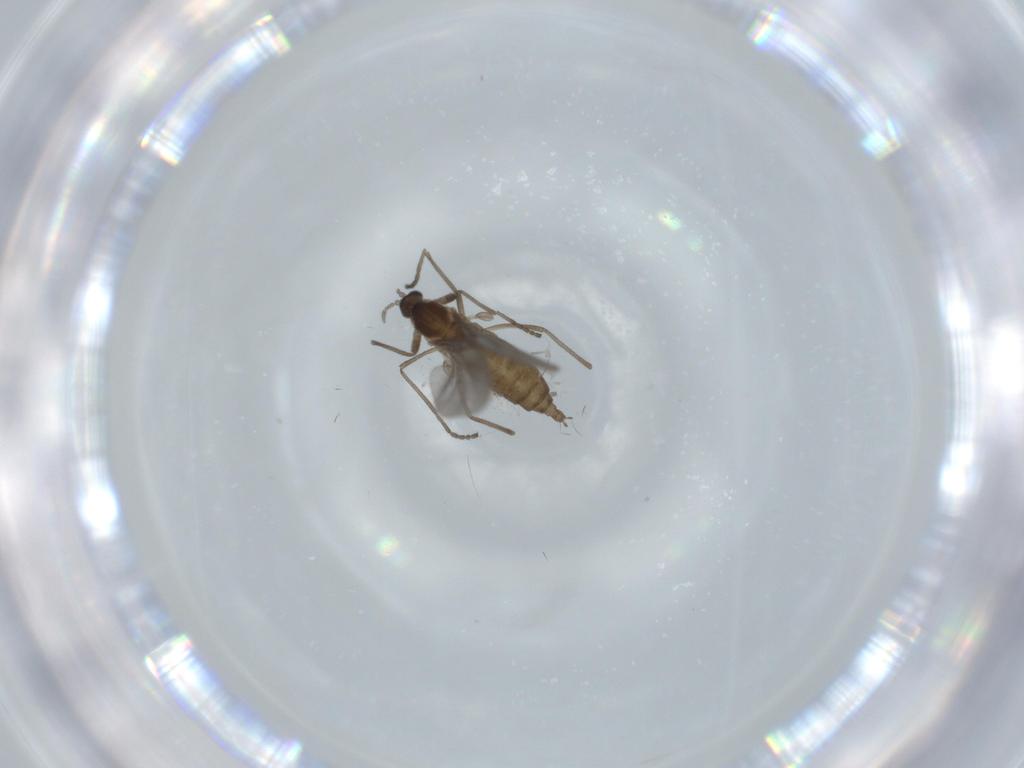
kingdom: Animalia
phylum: Arthropoda
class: Insecta
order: Diptera
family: Cecidomyiidae
